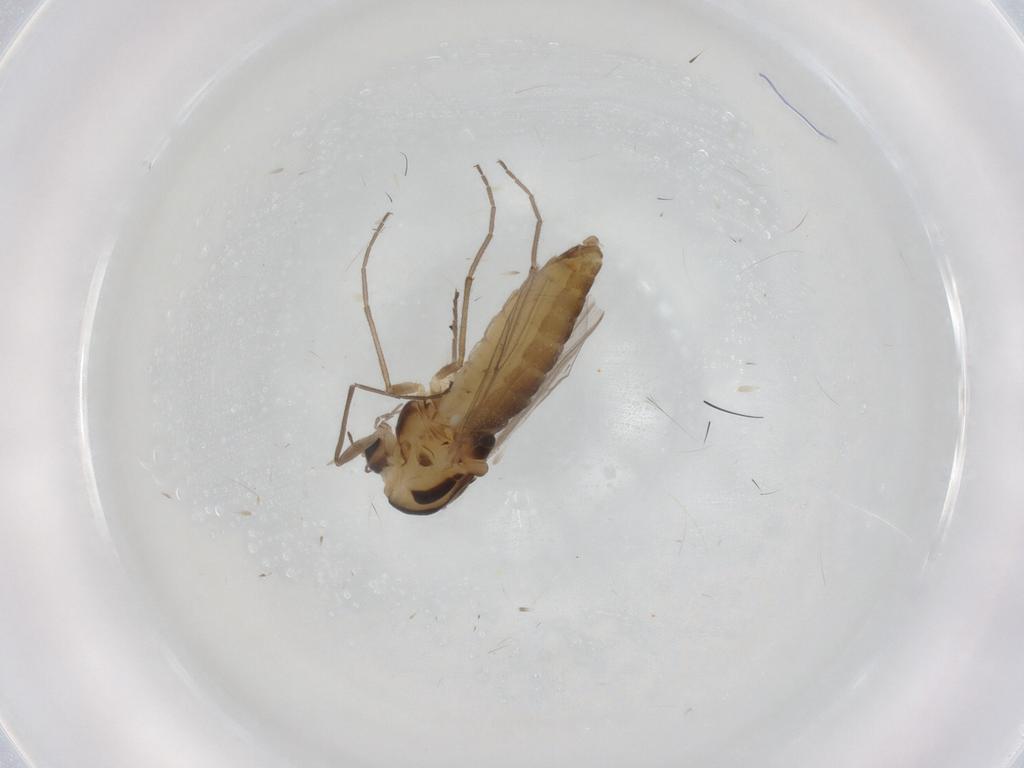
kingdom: Animalia
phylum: Arthropoda
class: Insecta
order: Diptera
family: Chironomidae
